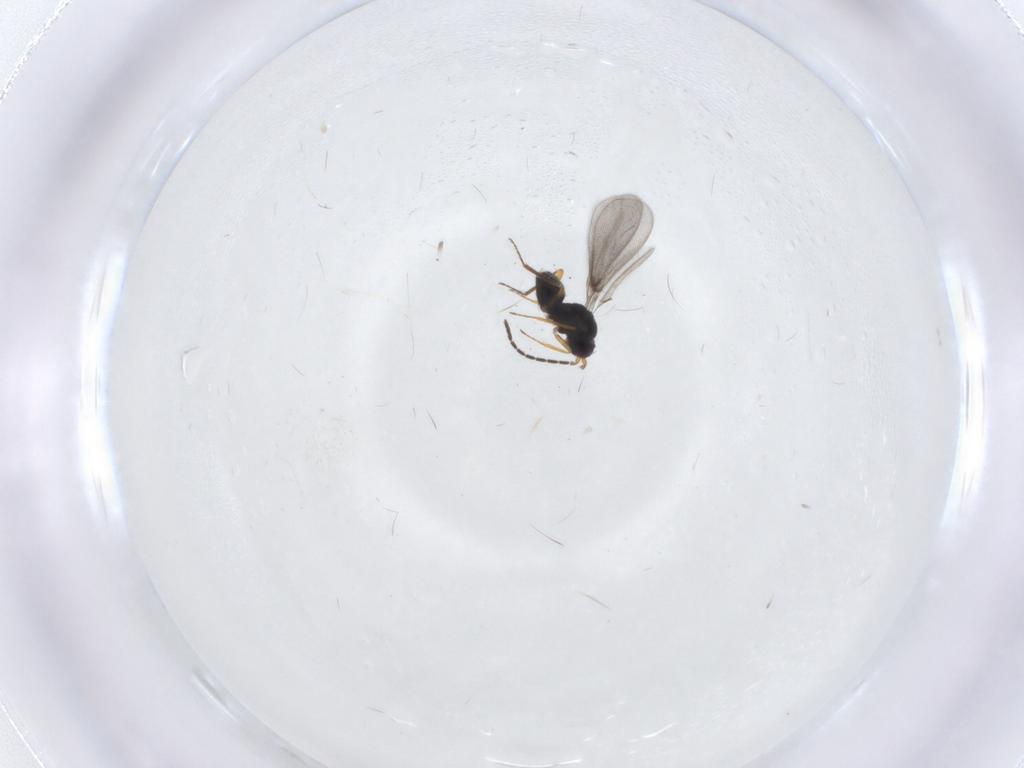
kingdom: Animalia
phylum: Arthropoda
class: Insecta
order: Hymenoptera
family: Mymaridae
